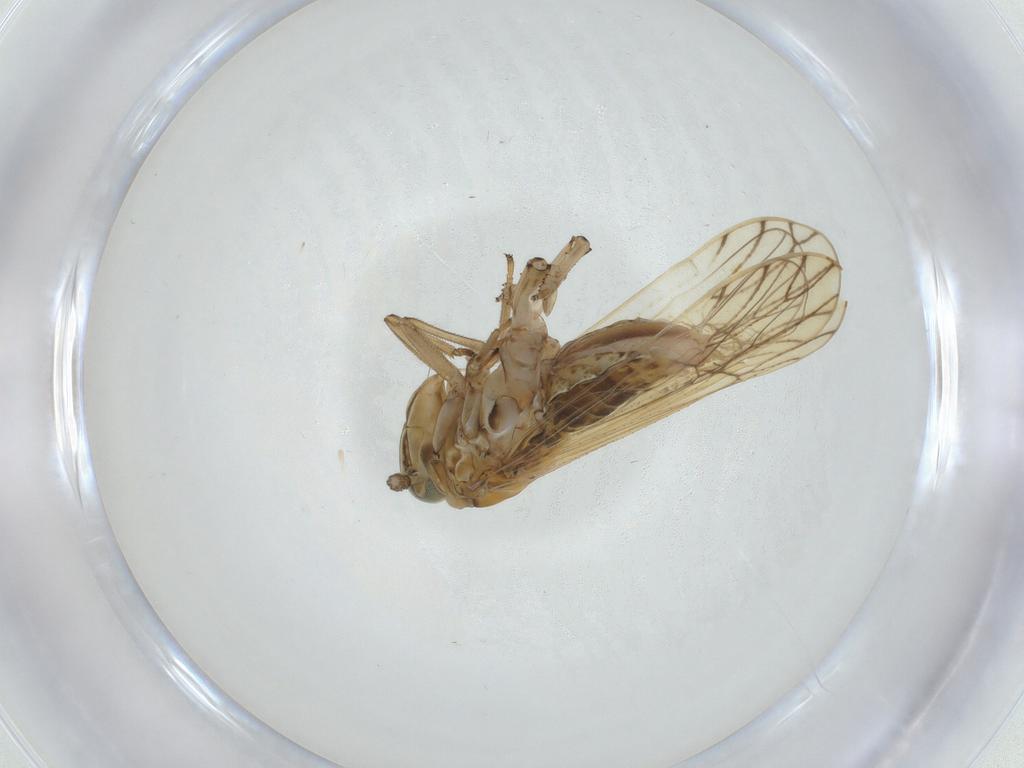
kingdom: Animalia
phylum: Arthropoda
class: Insecta
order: Hemiptera
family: Delphacidae
